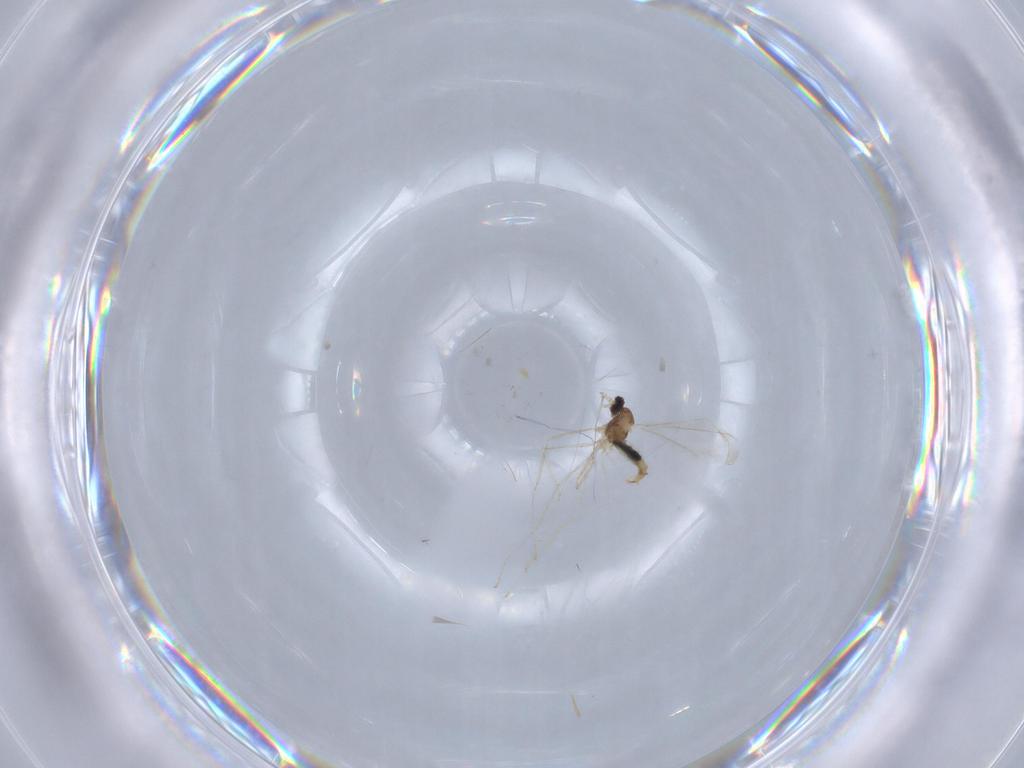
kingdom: Animalia
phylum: Arthropoda
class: Insecta
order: Diptera
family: Cecidomyiidae
